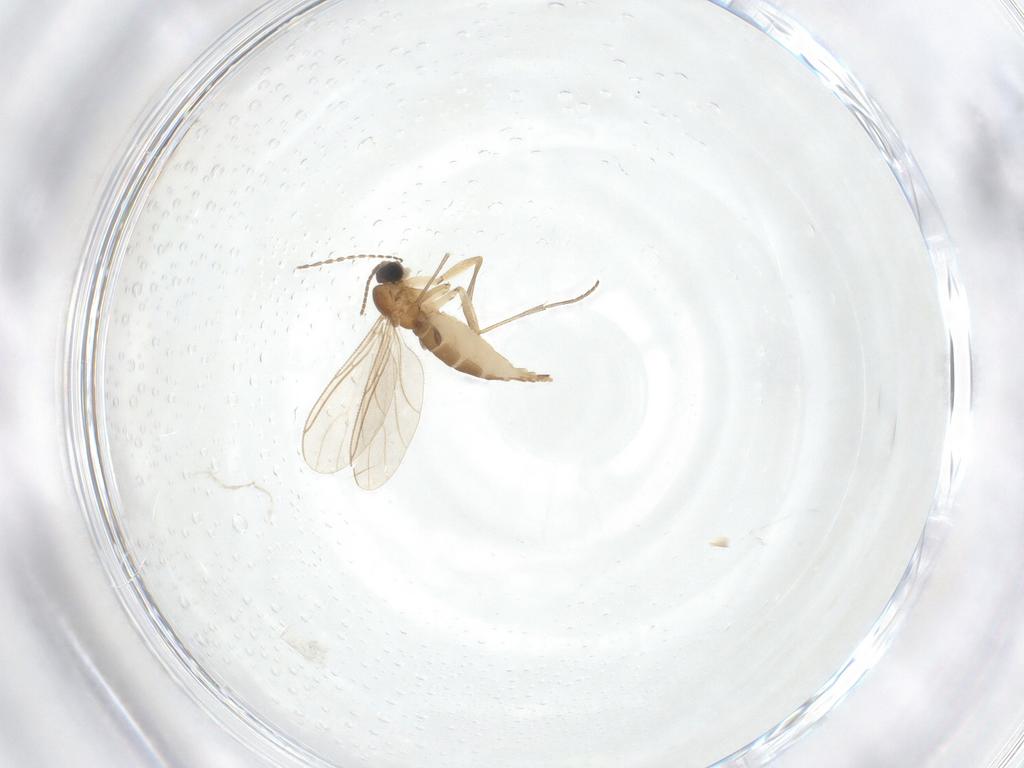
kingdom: Animalia
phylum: Arthropoda
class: Insecta
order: Diptera
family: Sciaridae
